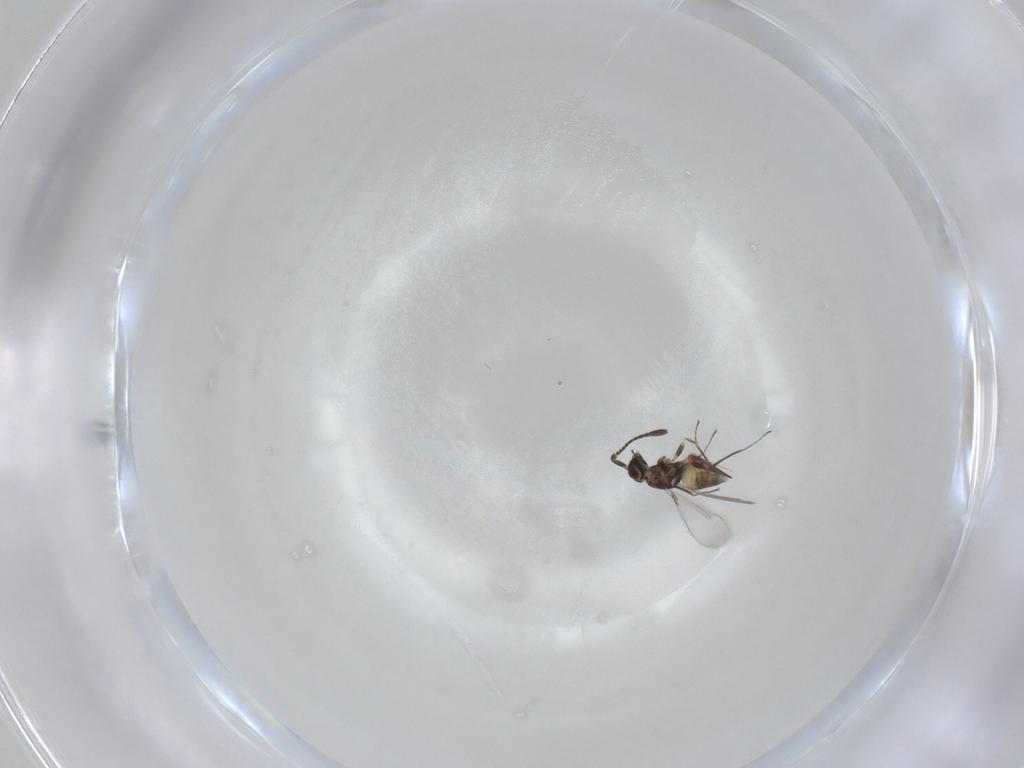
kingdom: Animalia
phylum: Arthropoda
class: Insecta
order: Hymenoptera
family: Mymaridae
